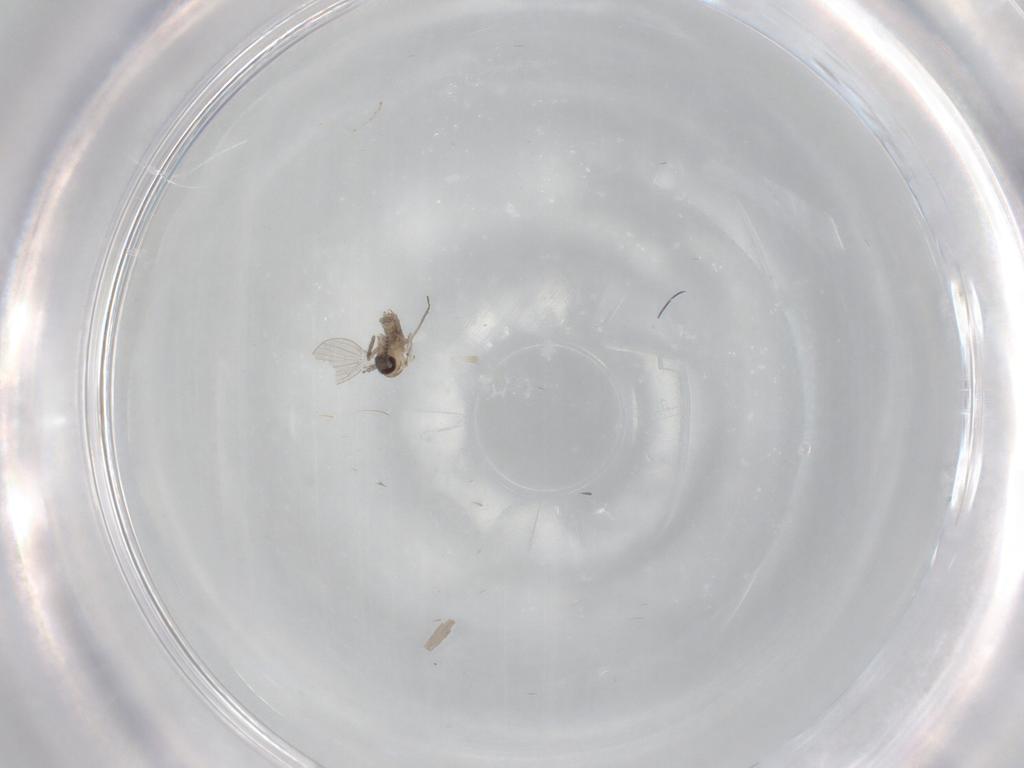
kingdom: Animalia
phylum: Arthropoda
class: Insecta
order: Diptera
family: Psychodidae
